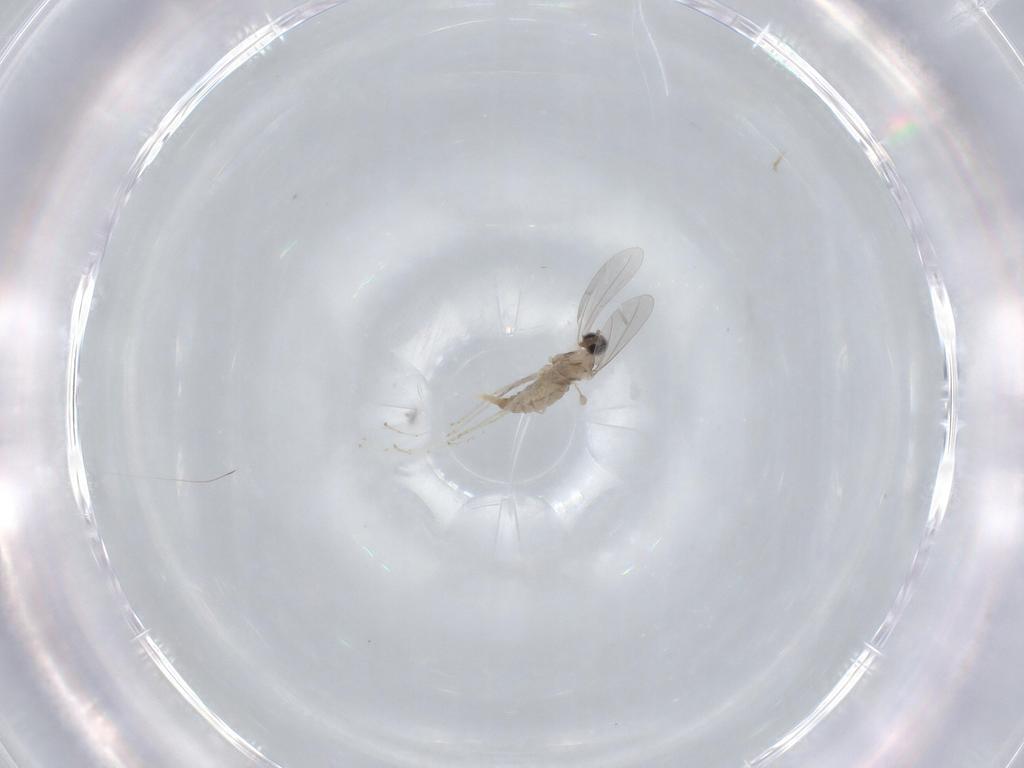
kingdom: Animalia
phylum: Arthropoda
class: Insecta
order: Diptera
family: Cecidomyiidae
